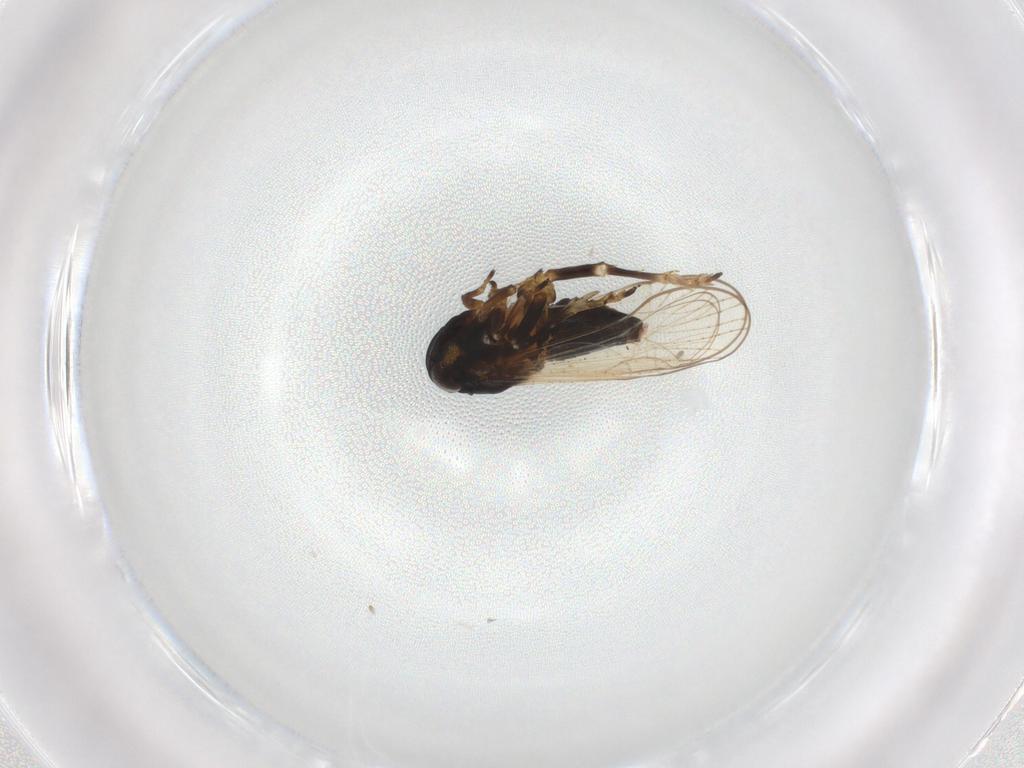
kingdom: Animalia
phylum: Arthropoda
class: Insecta
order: Hemiptera
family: Delphacidae
